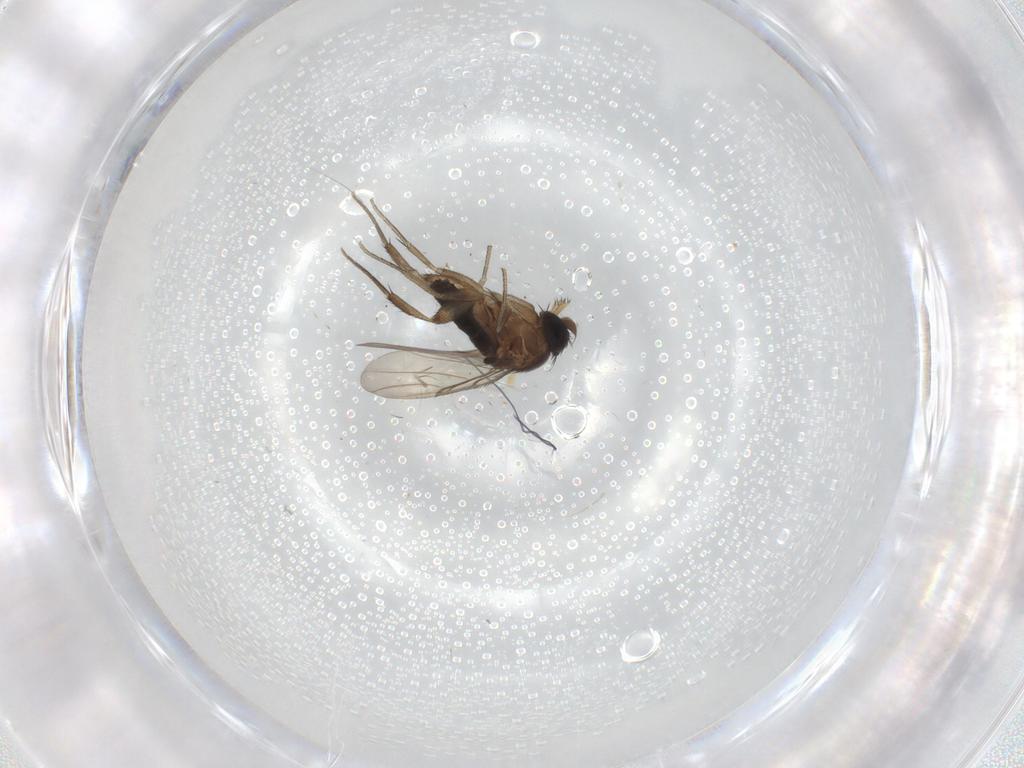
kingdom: Animalia
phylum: Arthropoda
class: Insecta
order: Diptera
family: Phoridae
